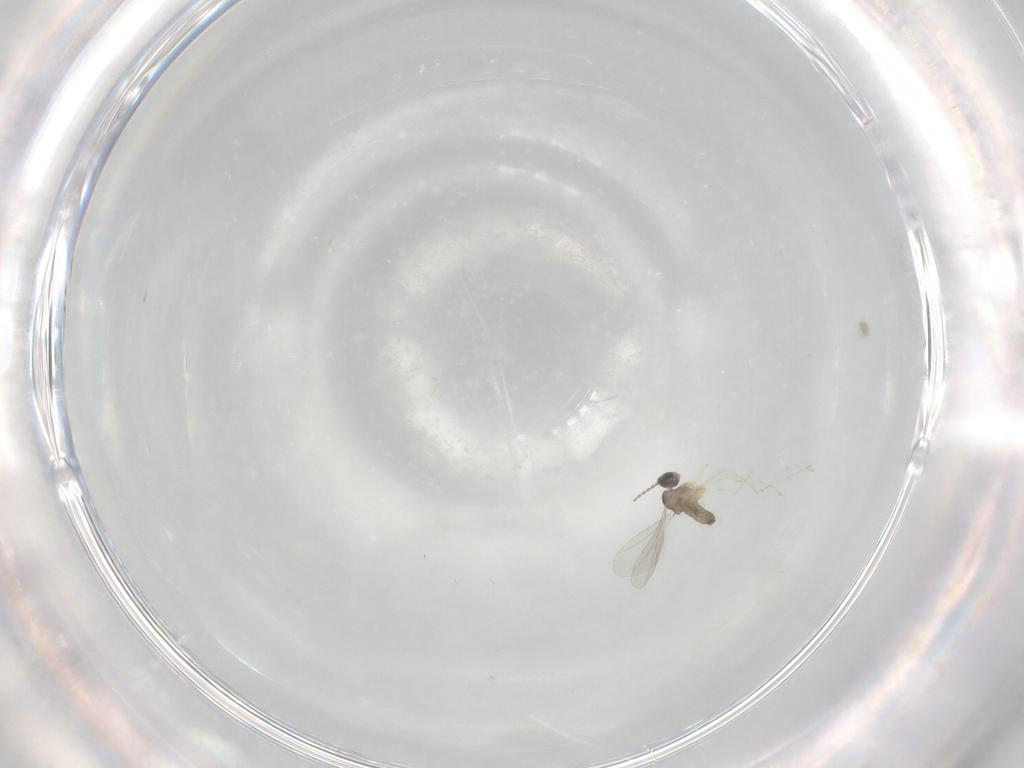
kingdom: Animalia
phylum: Arthropoda
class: Insecta
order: Diptera
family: Cecidomyiidae
